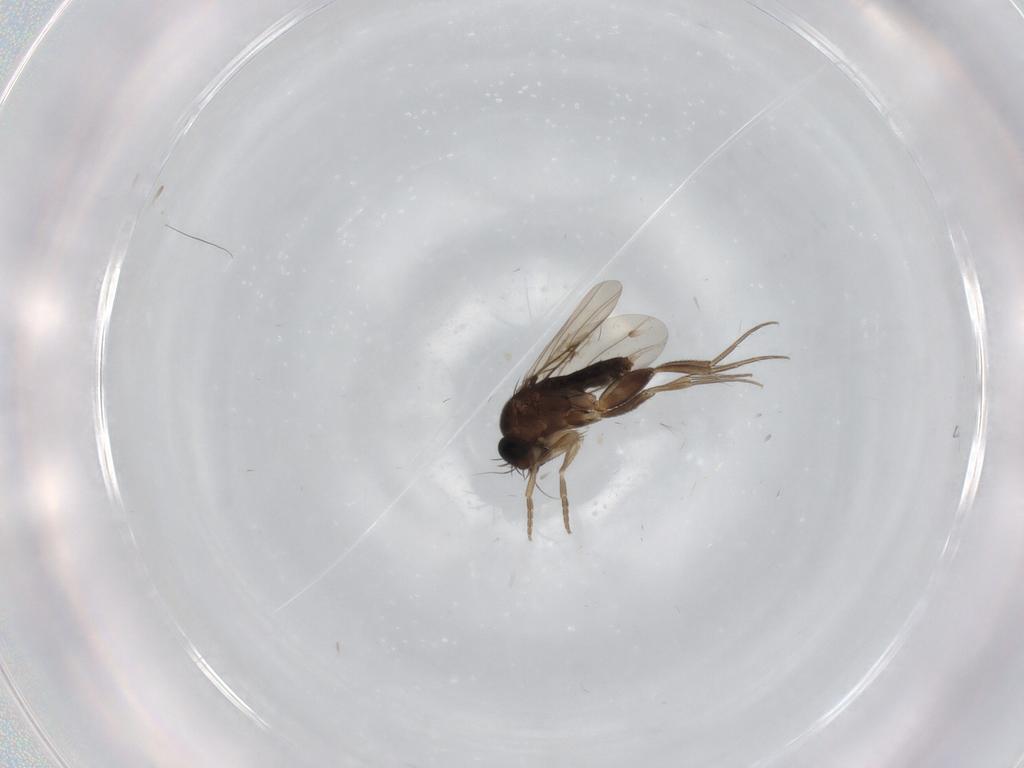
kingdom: Animalia
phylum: Arthropoda
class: Insecta
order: Diptera
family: Phoridae
